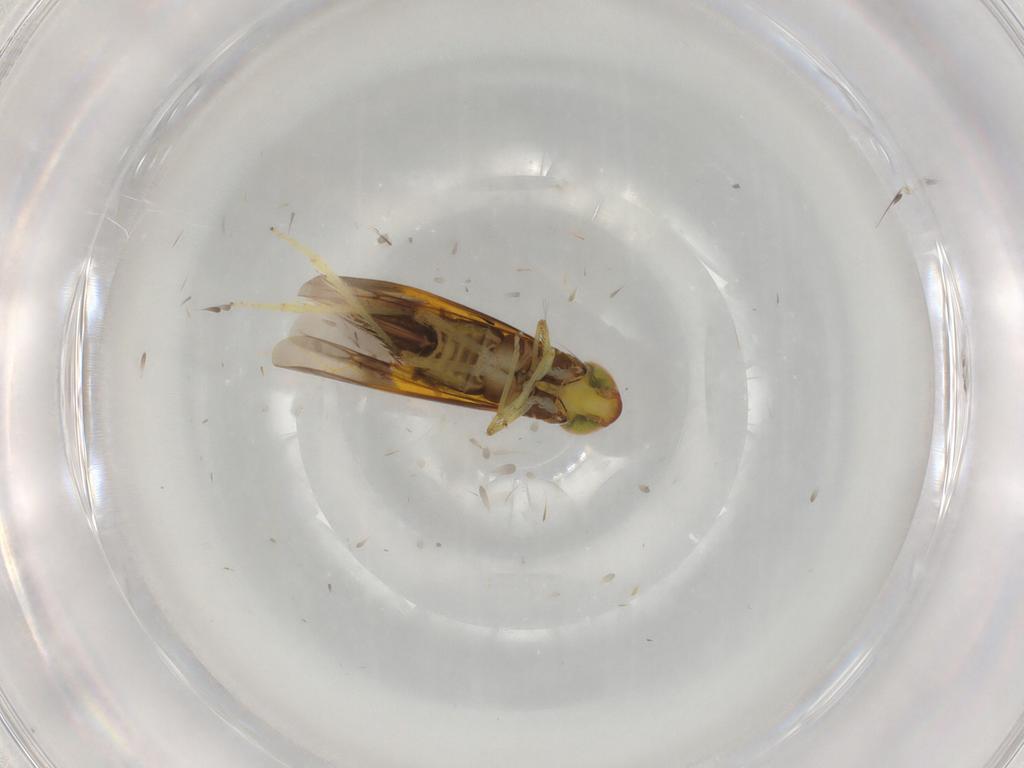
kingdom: Animalia
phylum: Arthropoda
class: Insecta
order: Hemiptera
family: Cicadellidae
